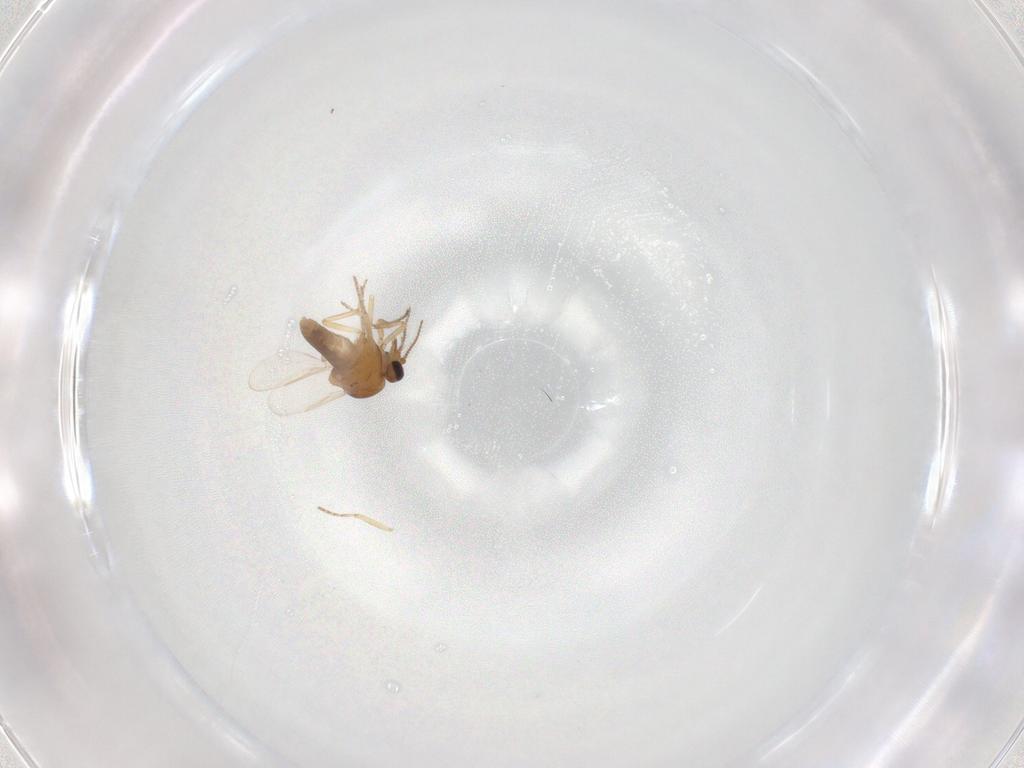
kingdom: Animalia
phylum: Arthropoda
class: Insecta
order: Diptera
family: Ceratopogonidae
